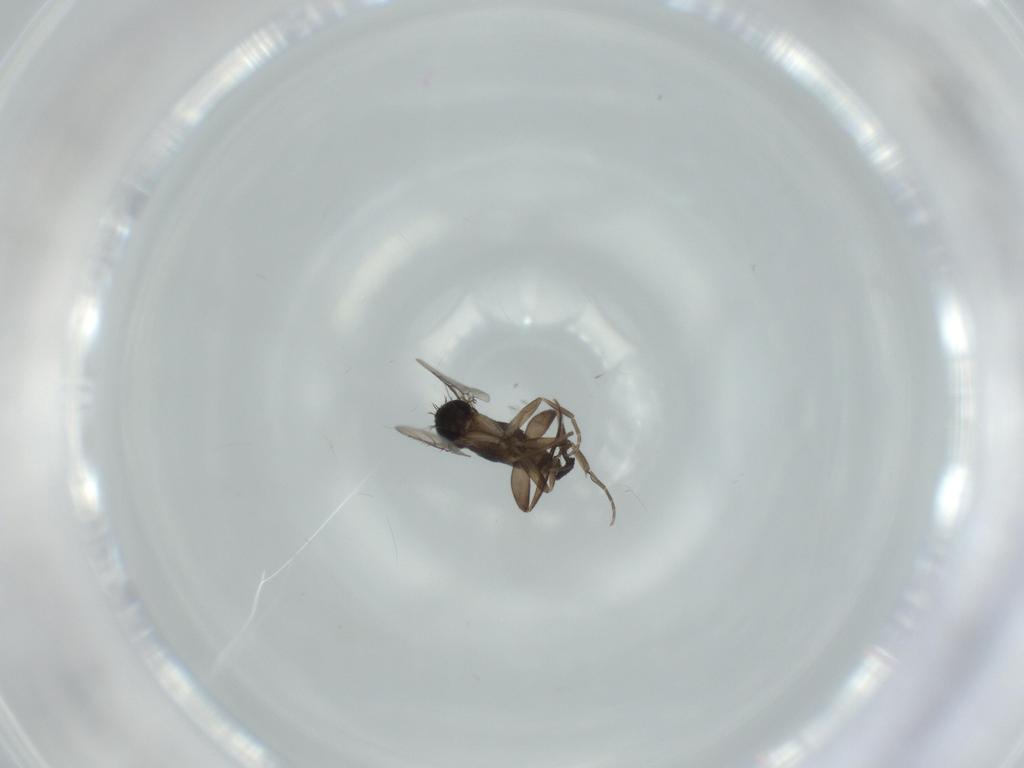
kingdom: Animalia
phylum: Arthropoda
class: Insecta
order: Diptera
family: Phoridae
